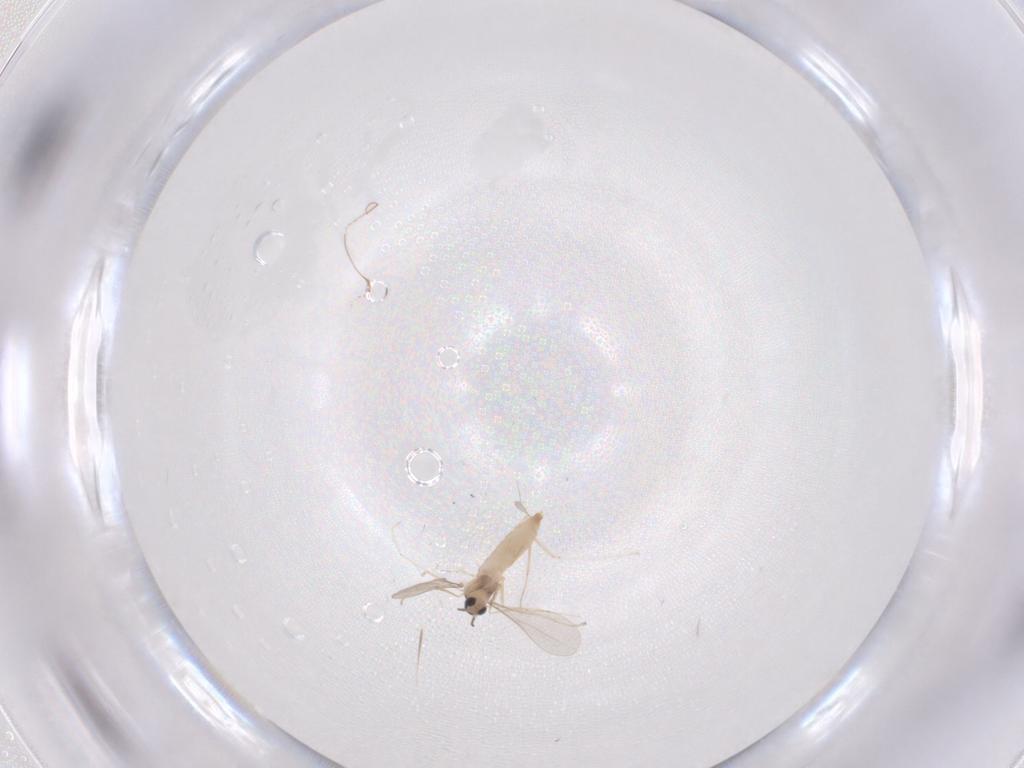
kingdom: Animalia
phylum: Arthropoda
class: Insecta
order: Diptera
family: Cecidomyiidae
